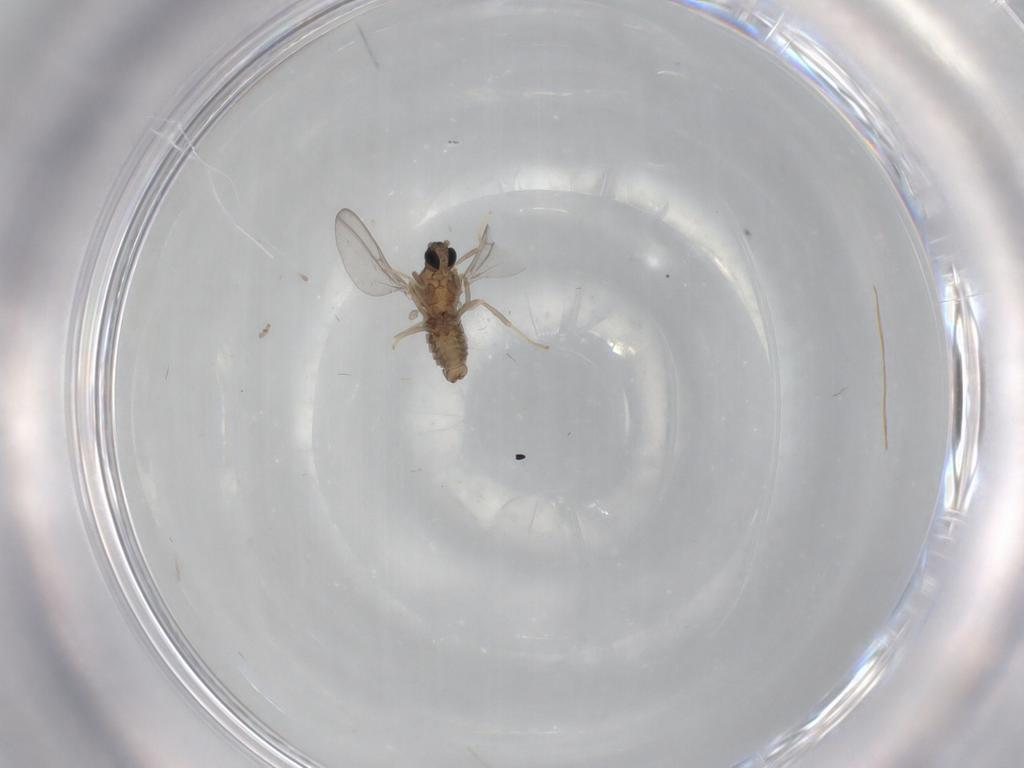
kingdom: Animalia
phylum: Arthropoda
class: Insecta
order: Diptera
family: Cecidomyiidae
